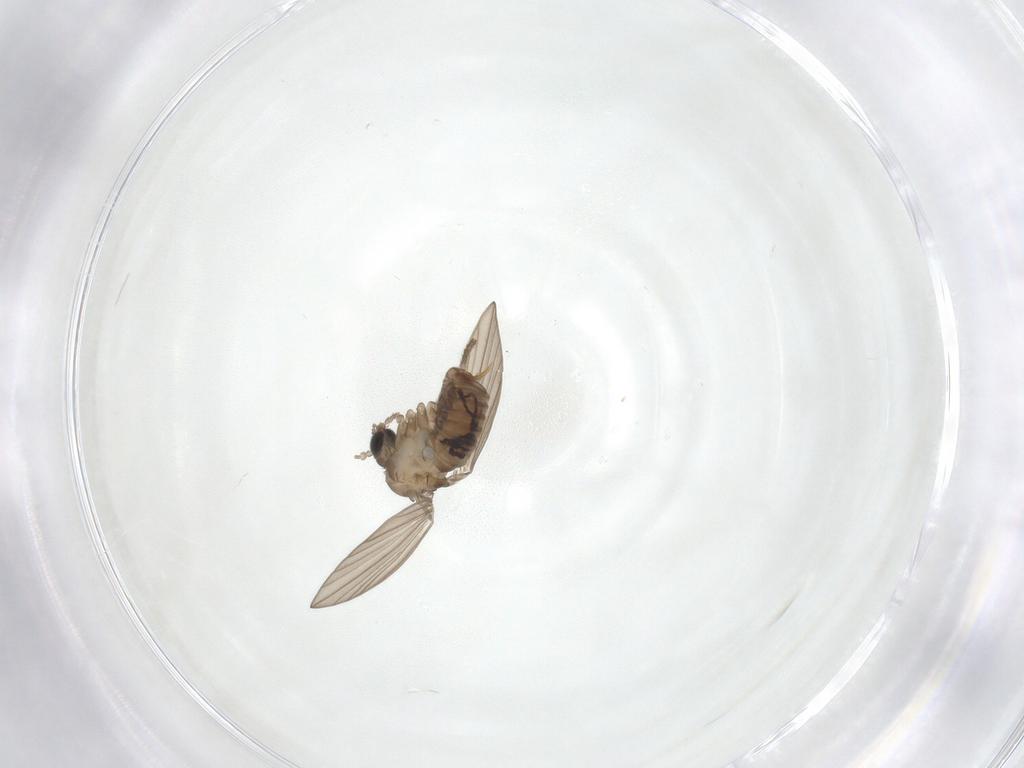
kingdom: Animalia
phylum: Arthropoda
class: Insecta
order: Diptera
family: Psychodidae
